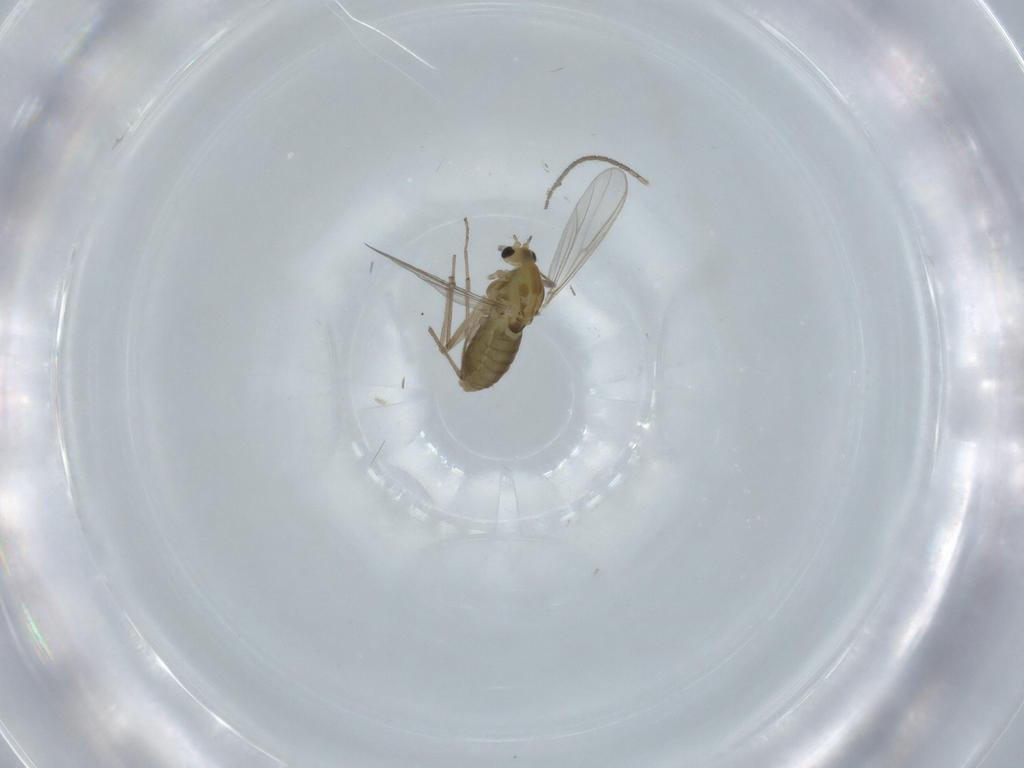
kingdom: Animalia
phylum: Arthropoda
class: Insecta
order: Diptera
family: Chironomidae
